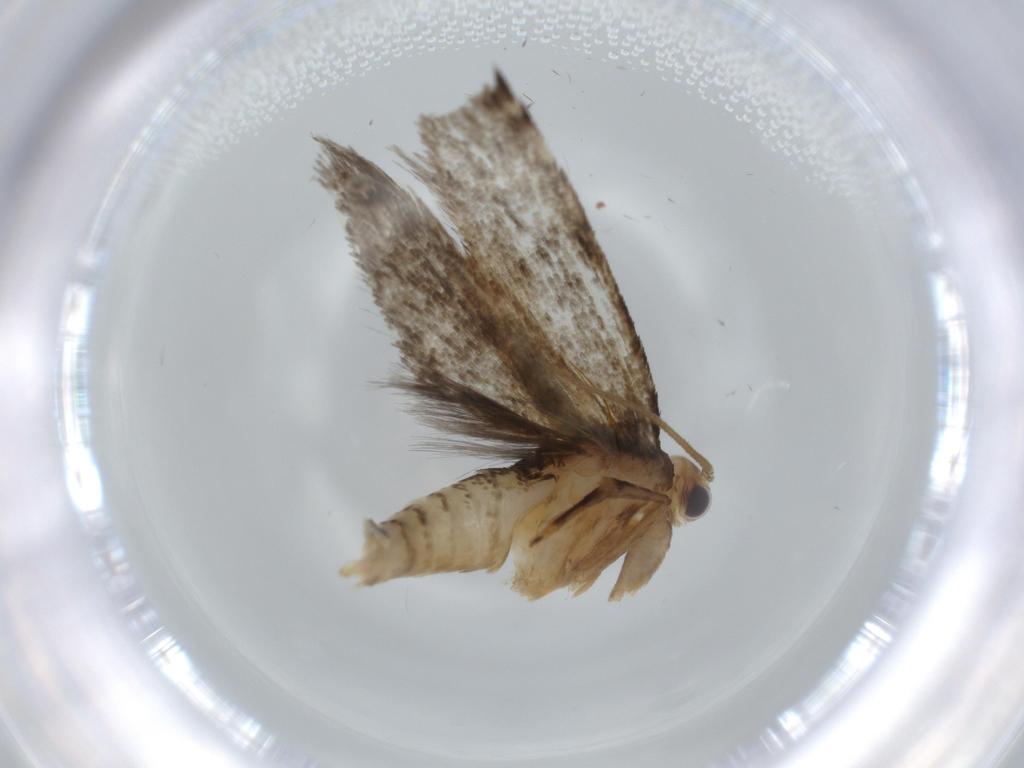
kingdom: Animalia
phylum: Arthropoda
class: Insecta
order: Lepidoptera
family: Tineidae
